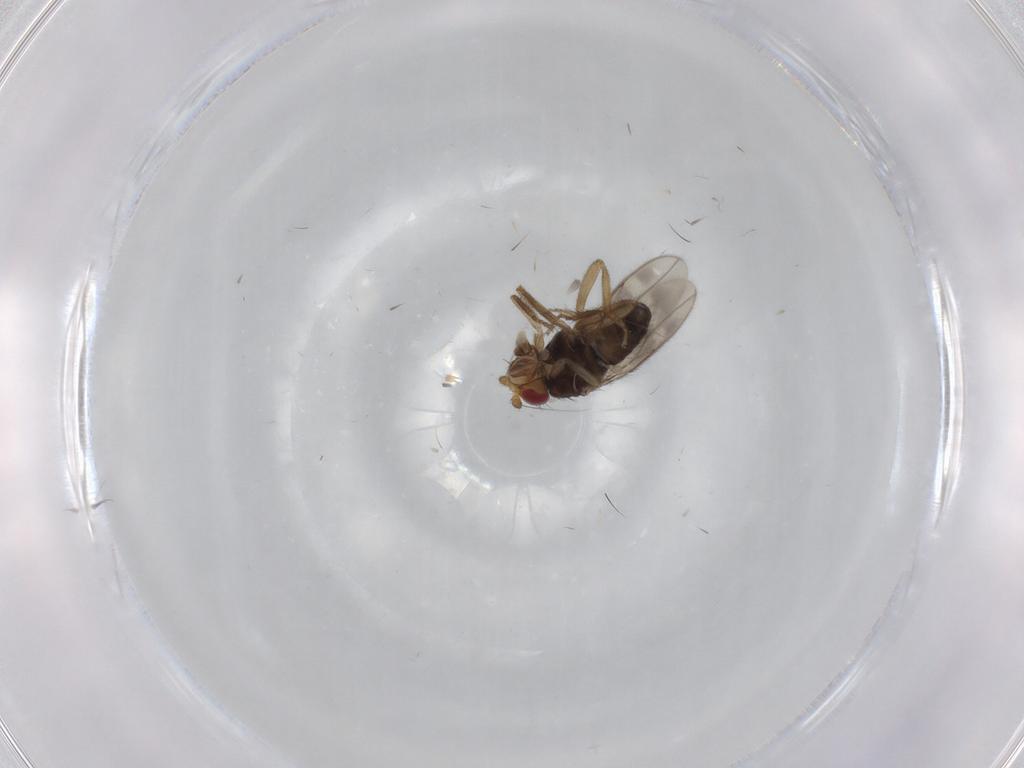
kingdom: Animalia
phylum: Arthropoda
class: Insecta
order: Diptera
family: Sphaeroceridae
